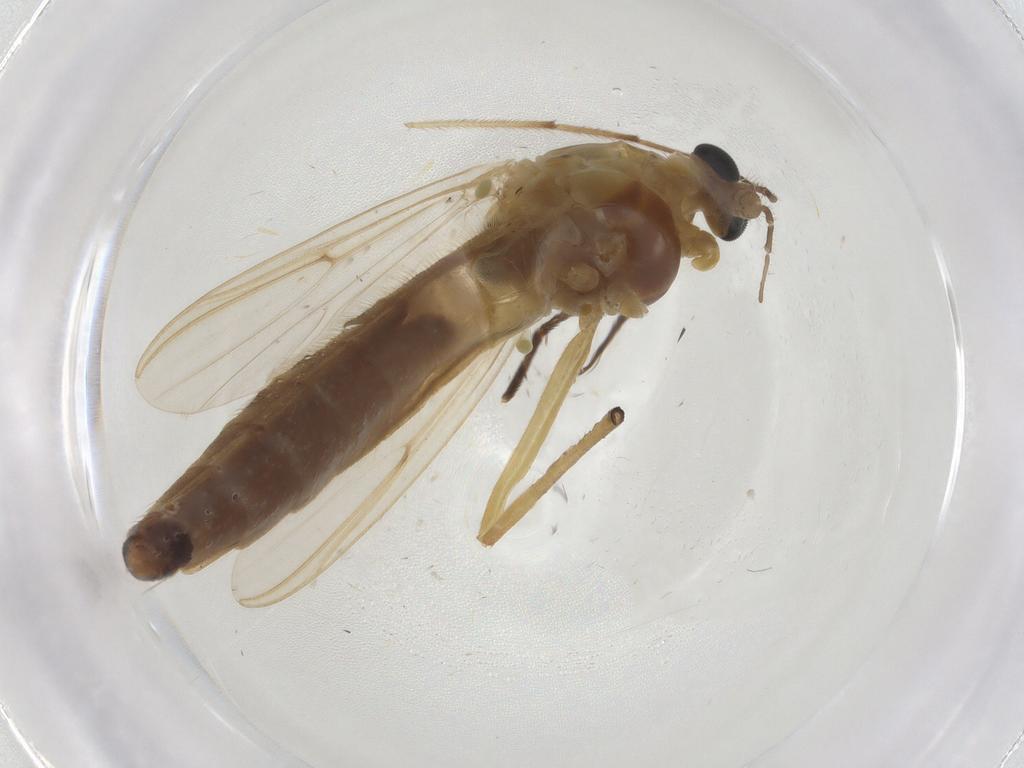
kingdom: Animalia
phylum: Arthropoda
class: Insecta
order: Diptera
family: Chironomidae
